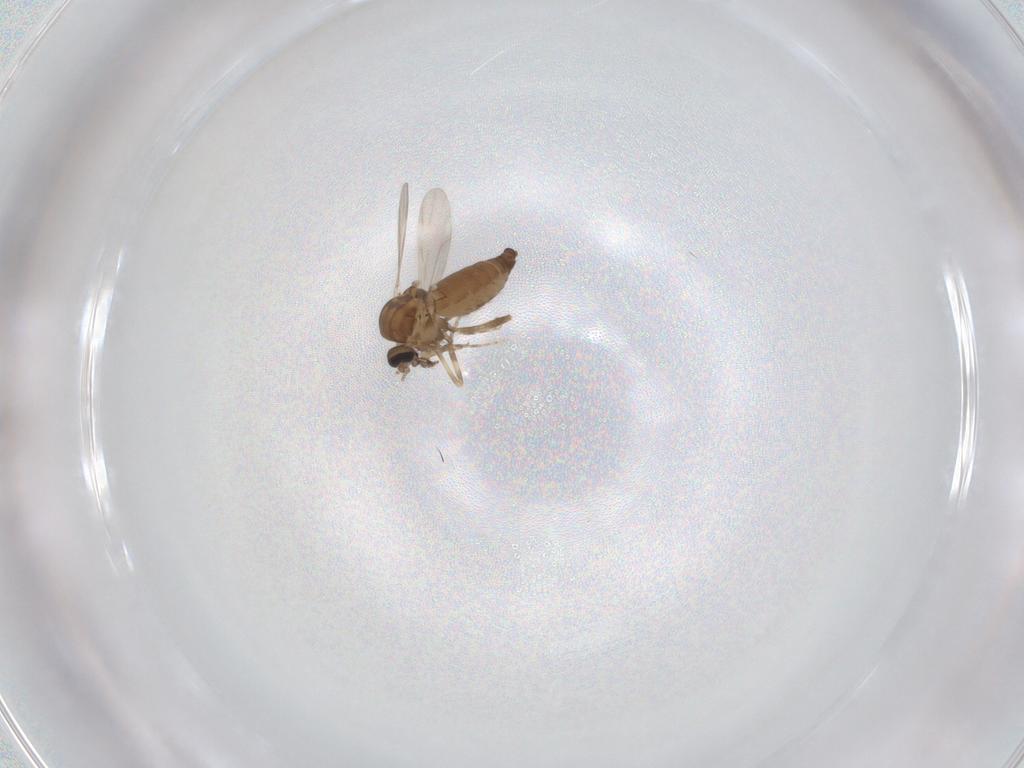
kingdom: Animalia
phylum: Arthropoda
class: Insecta
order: Diptera
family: Ceratopogonidae
